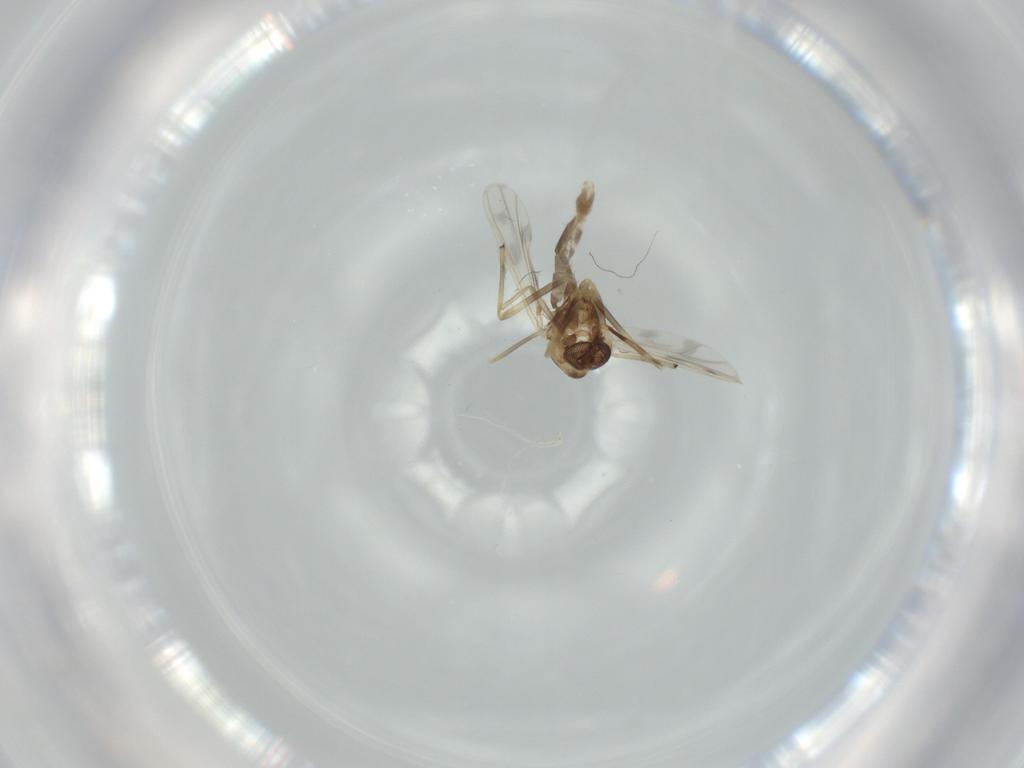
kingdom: Animalia
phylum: Arthropoda
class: Insecta
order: Diptera
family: Chironomidae
